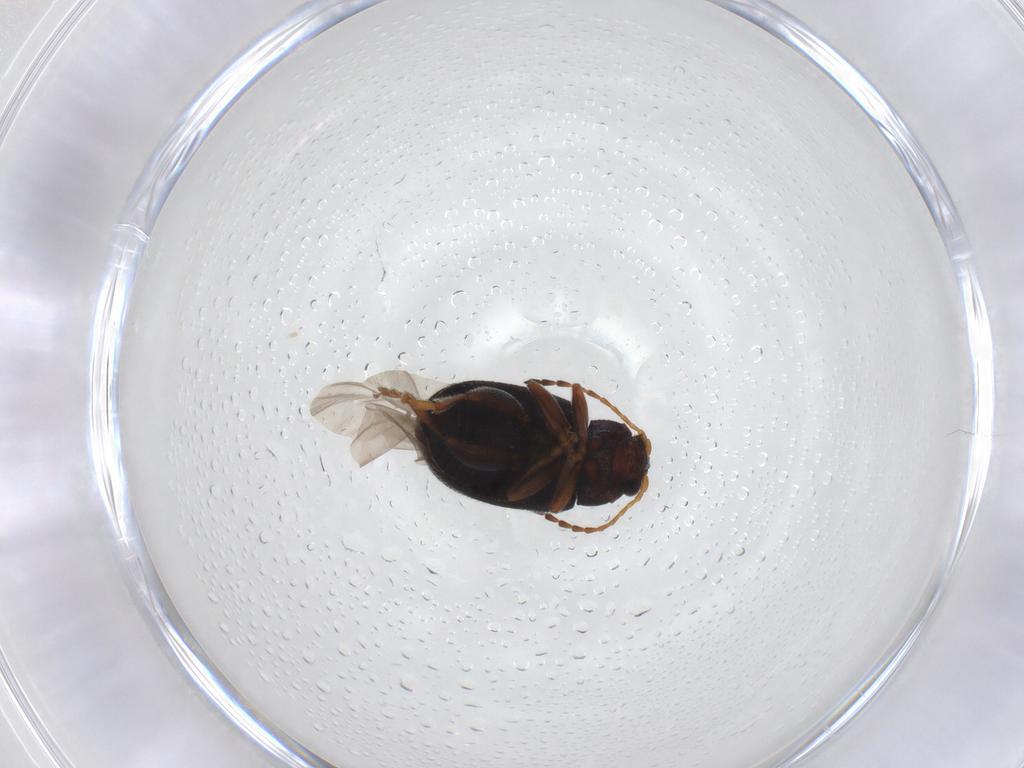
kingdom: Animalia
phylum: Arthropoda
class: Insecta
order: Coleoptera
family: Chrysomelidae
